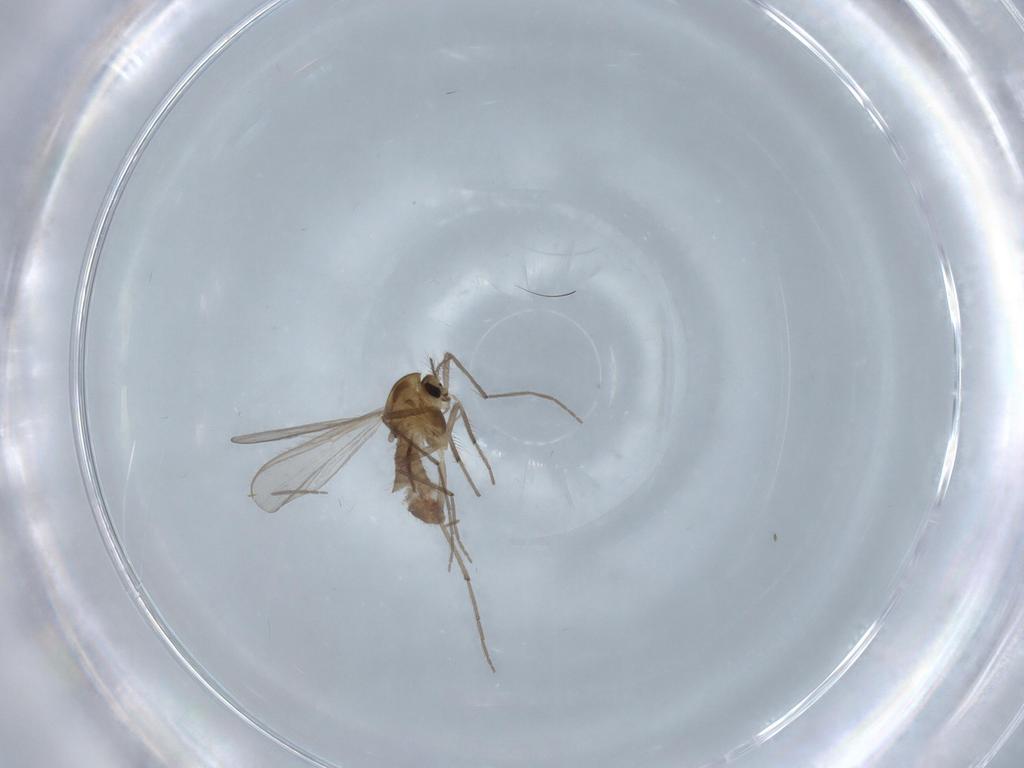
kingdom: Animalia
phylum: Arthropoda
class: Insecta
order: Diptera
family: Chironomidae
